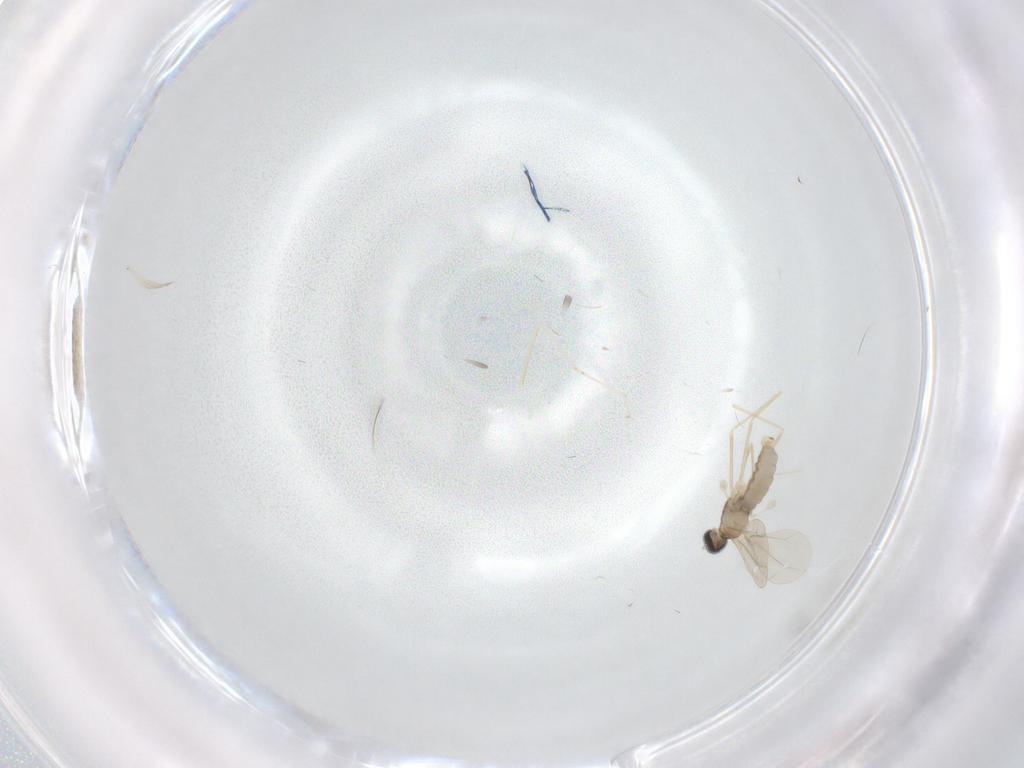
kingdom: Animalia
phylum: Arthropoda
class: Insecta
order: Diptera
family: Cecidomyiidae
